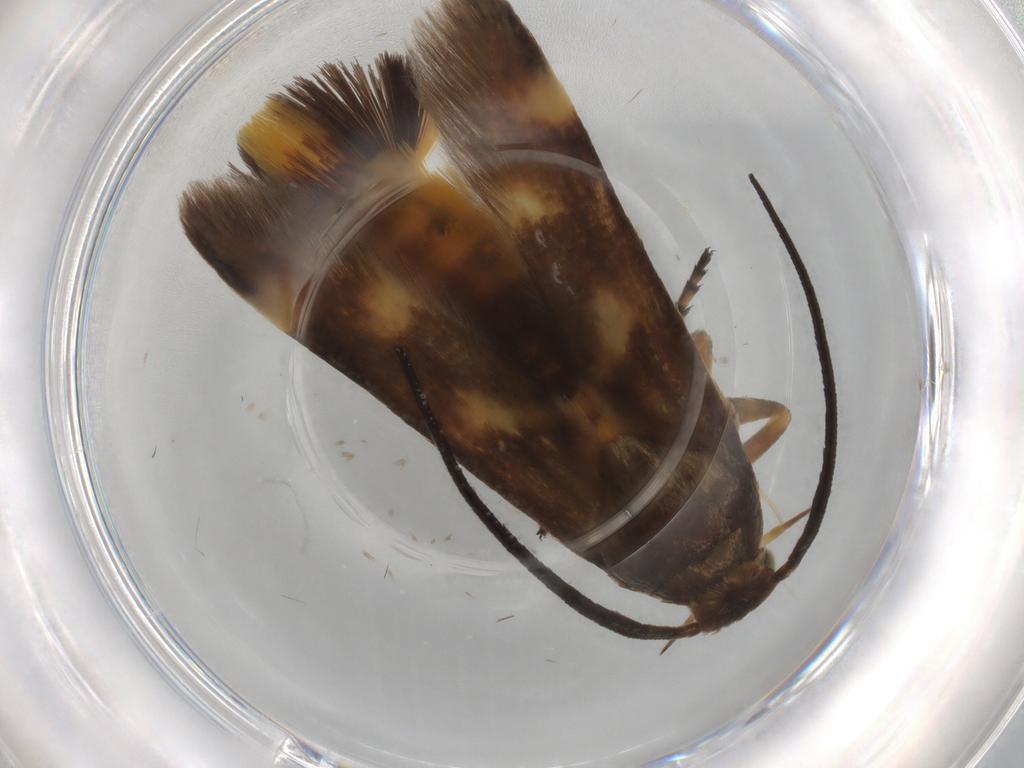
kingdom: Animalia
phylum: Arthropoda
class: Insecta
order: Lepidoptera
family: Scythrididae
